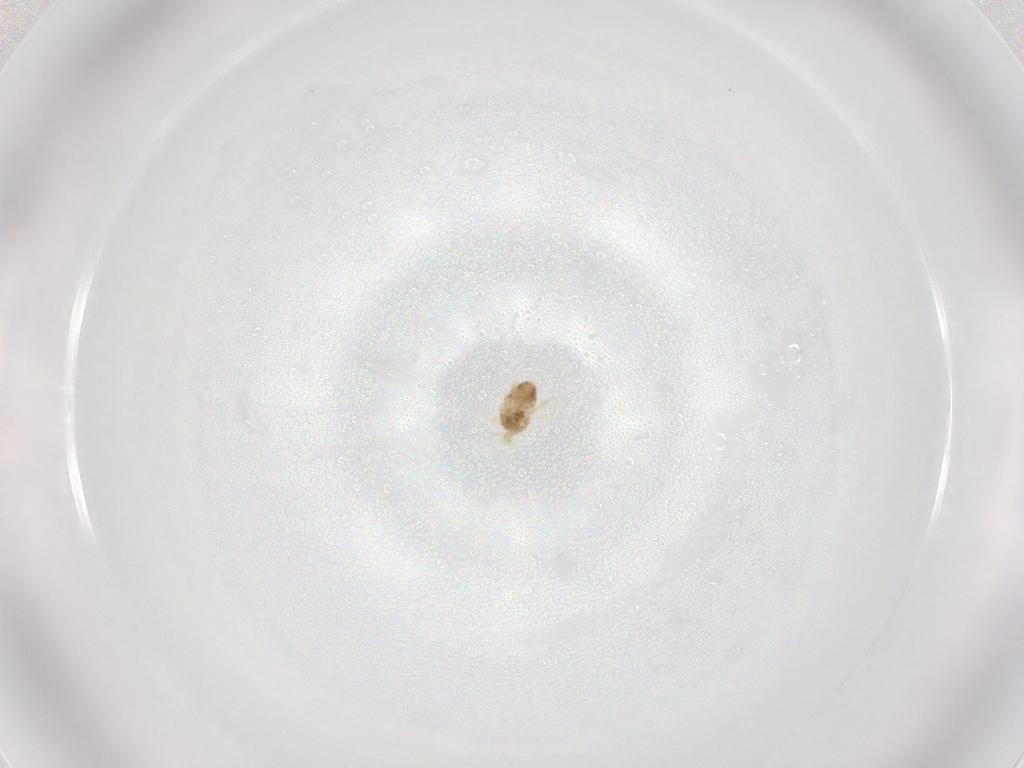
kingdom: Animalia
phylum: Arthropoda
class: Arachnida
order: Trombidiformes
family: Eupodidae
